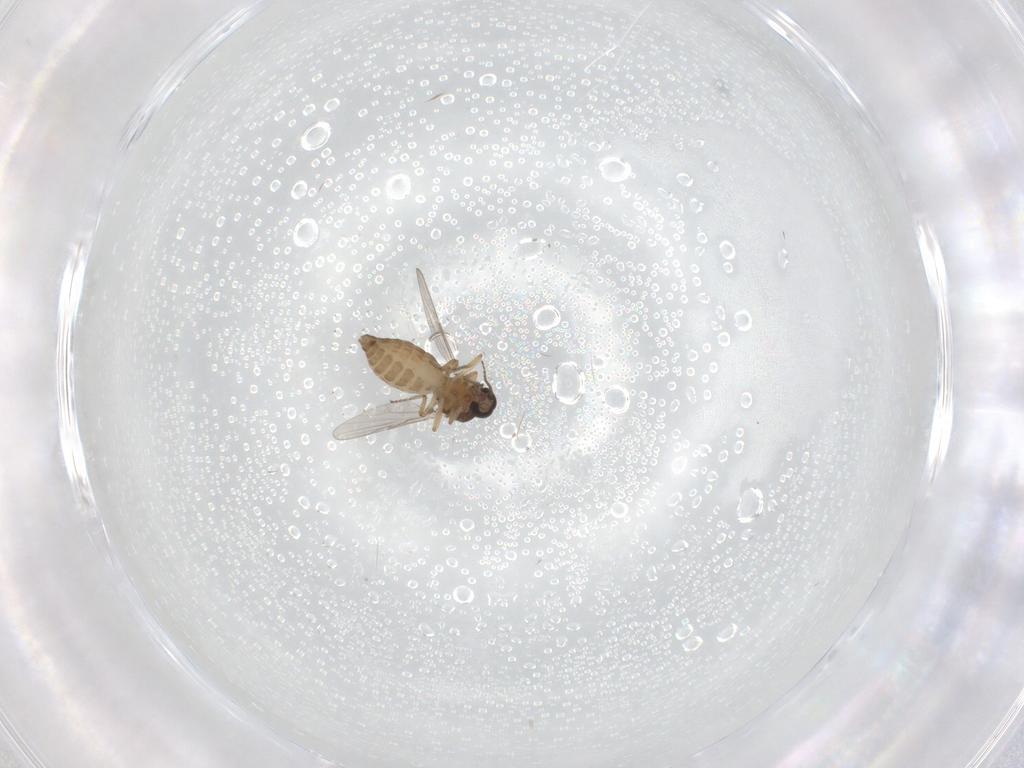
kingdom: Animalia
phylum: Arthropoda
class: Insecta
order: Diptera
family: Ceratopogonidae
